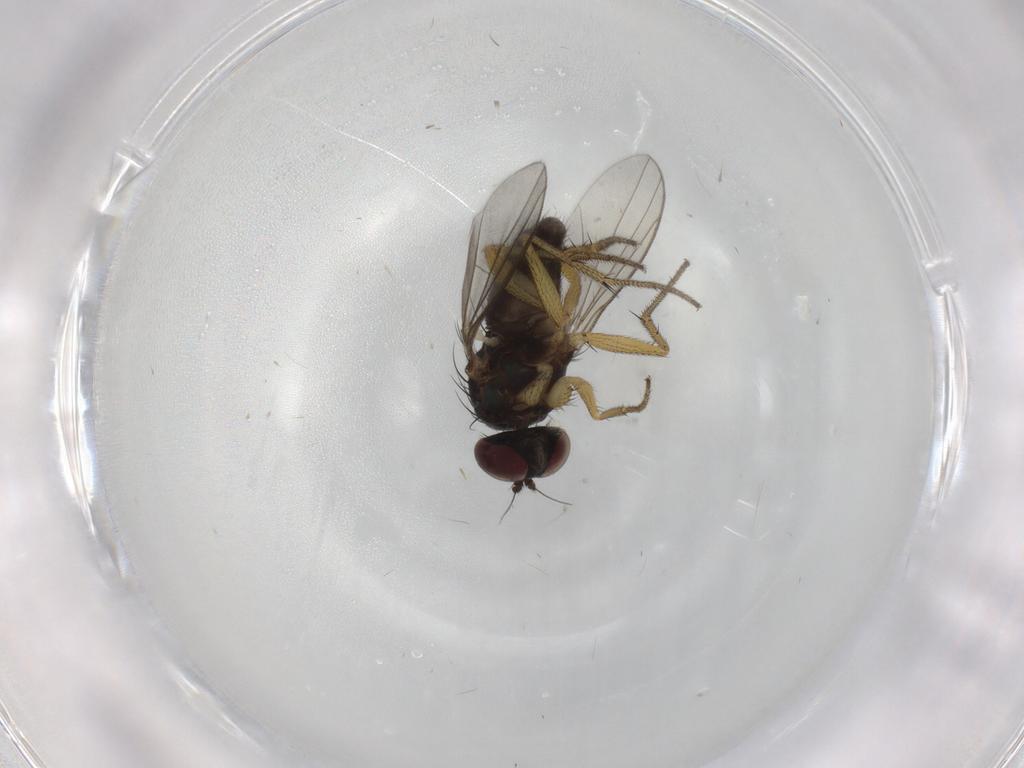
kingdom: Animalia
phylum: Arthropoda
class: Insecta
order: Diptera
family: Dolichopodidae
